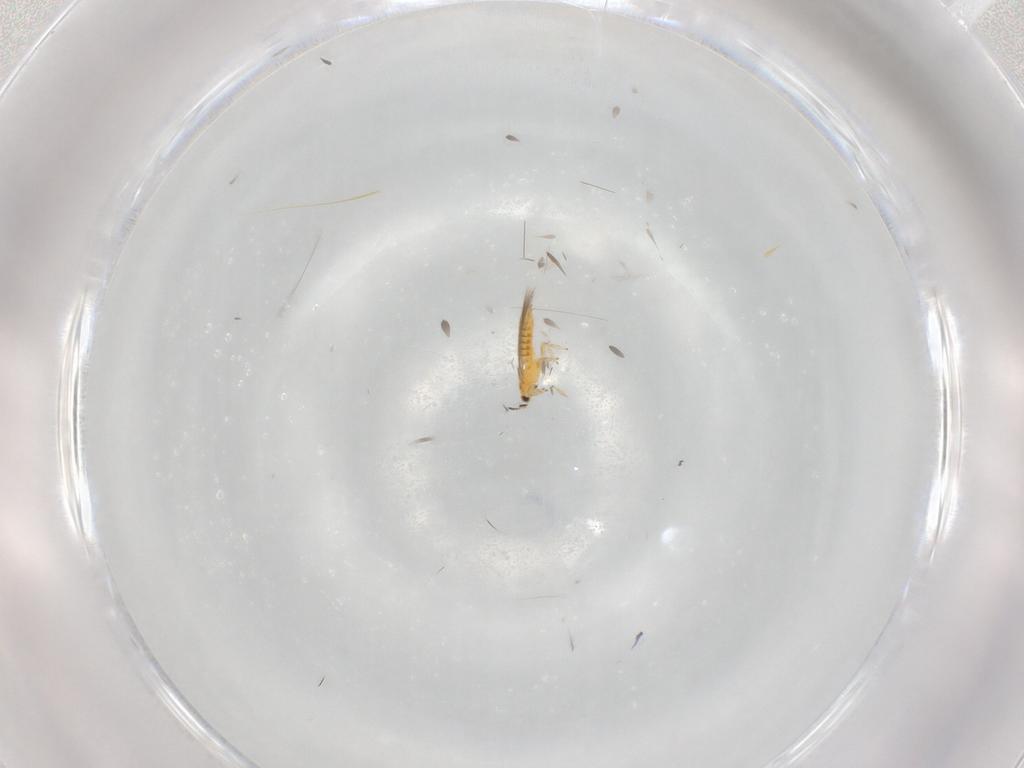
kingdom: Animalia
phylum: Arthropoda
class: Insecta
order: Thysanoptera
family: Thripidae
